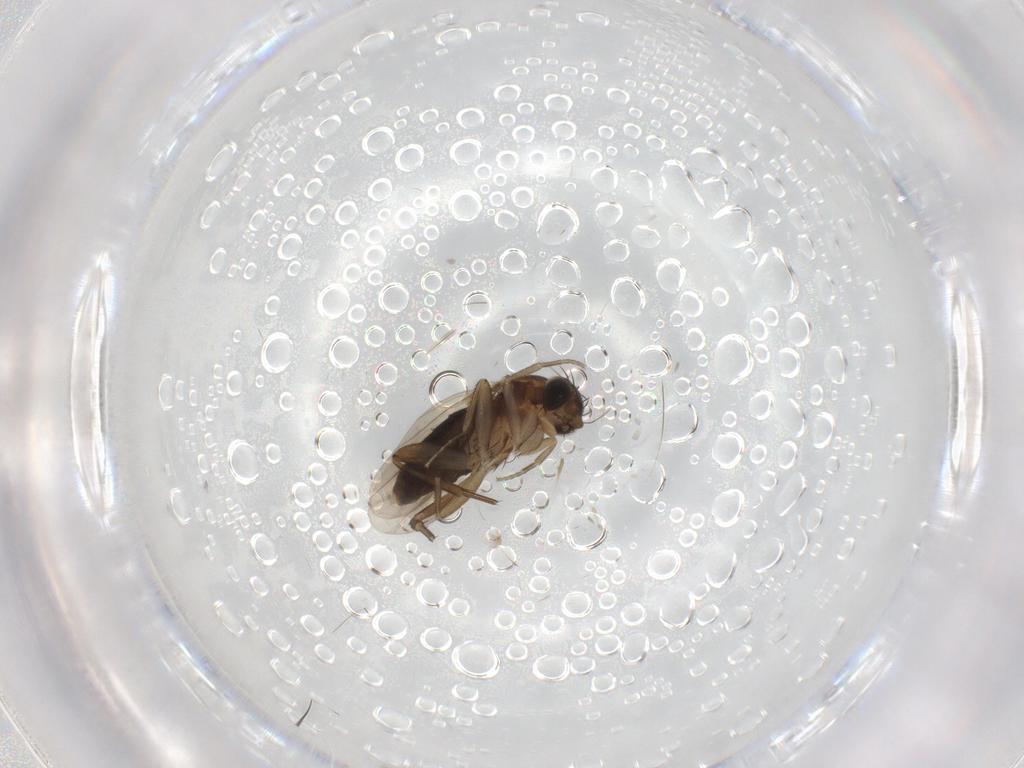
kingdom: Animalia
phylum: Arthropoda
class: Insecta
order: Diptera
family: Phoridae
